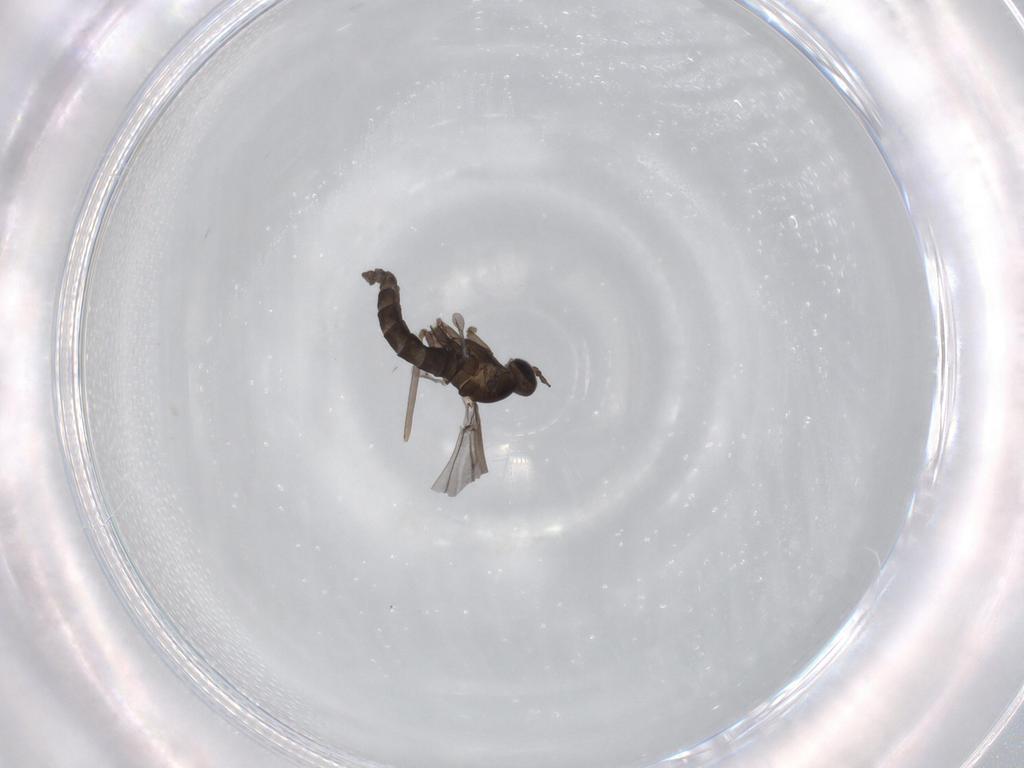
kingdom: Animalia
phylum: Arthropoda
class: Insecta
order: Diptera
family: Cecidomyiidae
